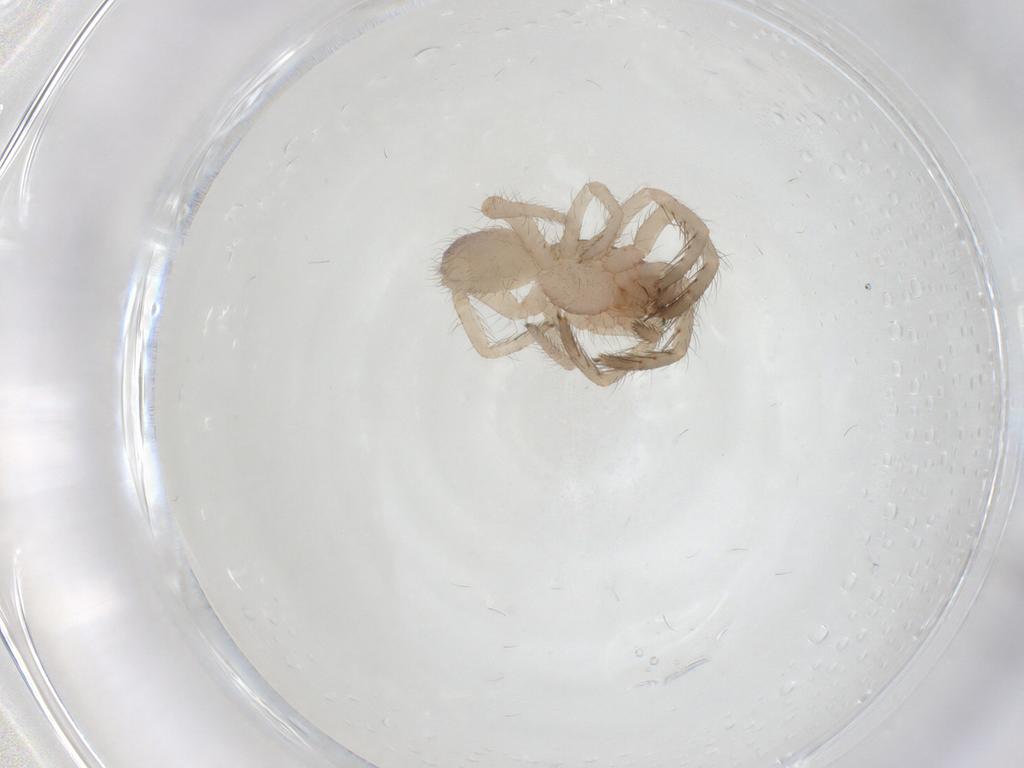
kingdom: Animalia
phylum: Arthropoda
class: Arachnida
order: Araneae
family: Segestriidae
